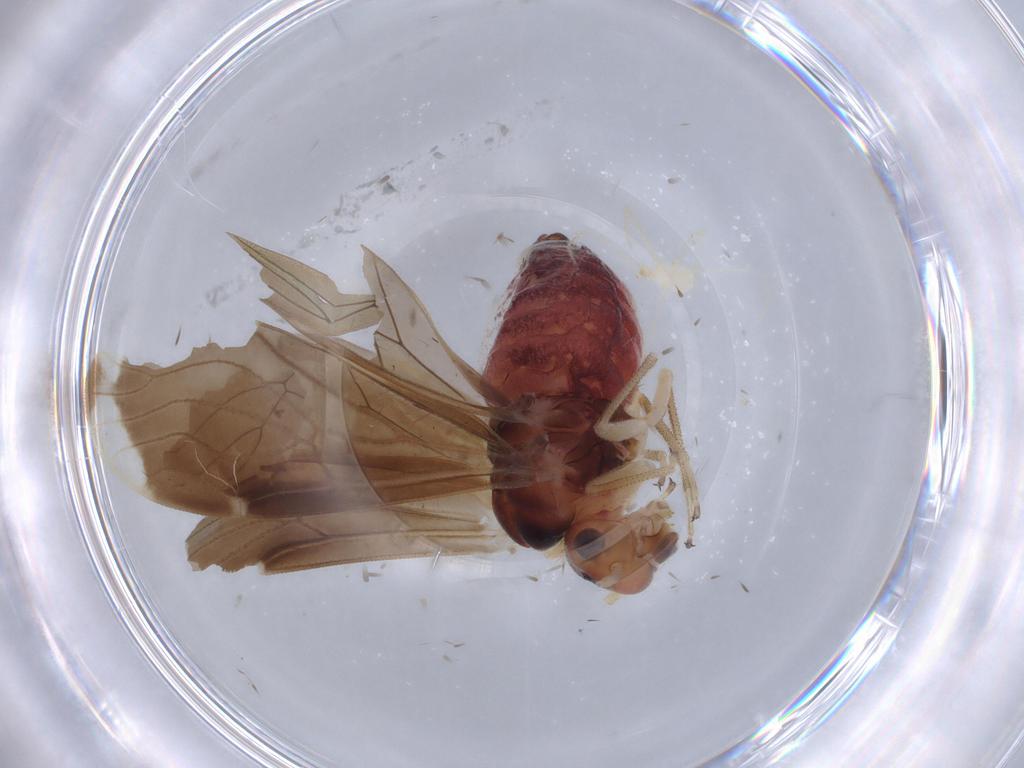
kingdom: Animalia
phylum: Arthropoda
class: Insecta
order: Psocodea
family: Amphipsocidae
